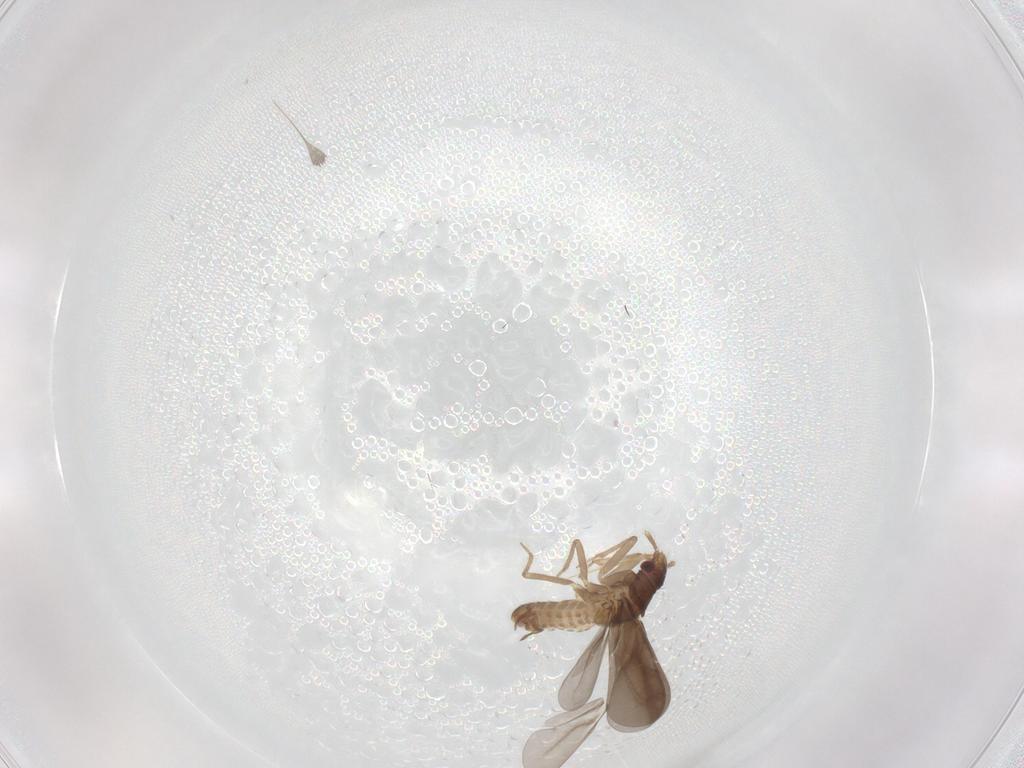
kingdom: Animalia
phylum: Arthropoda
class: Insecta
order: Hemiptera
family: Ceratocombidae
